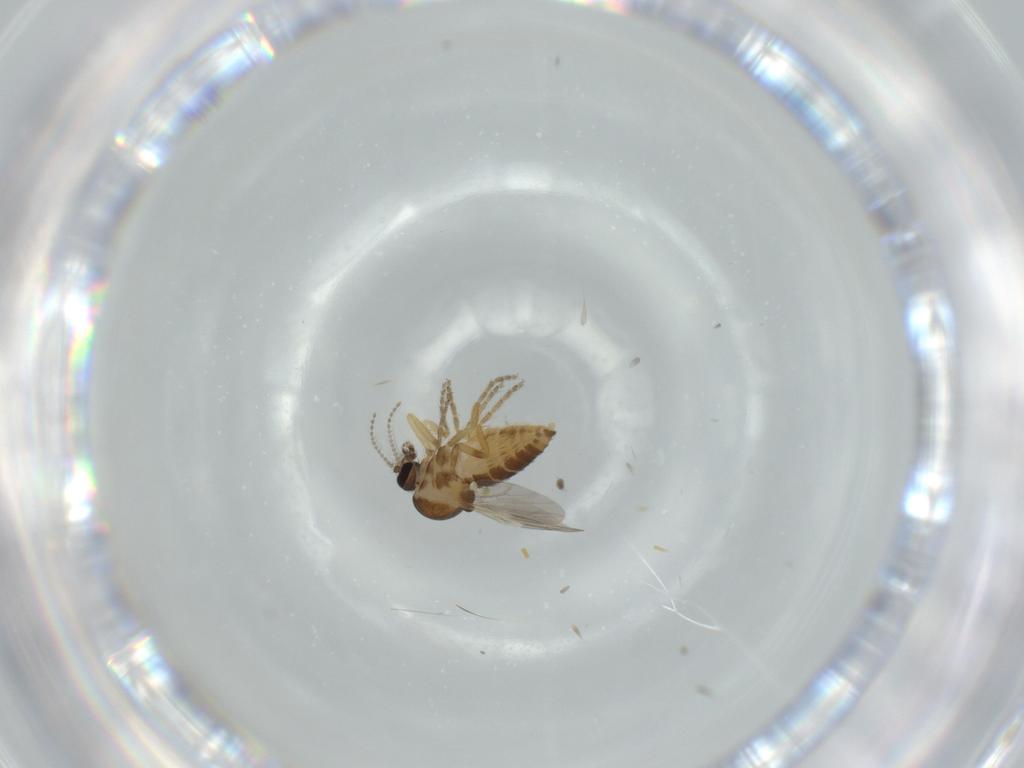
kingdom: Animalia
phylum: Arthropoda
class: Insecta
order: Diptera
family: Ceratopogonidae
